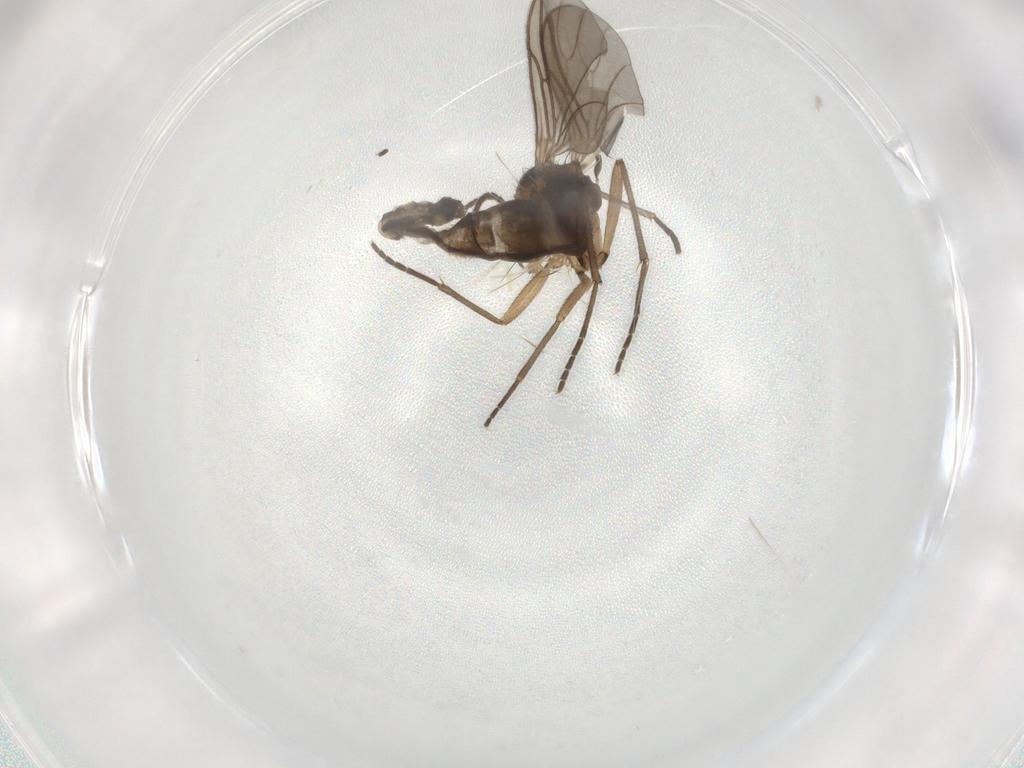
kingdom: Animalia
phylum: Arthropoda
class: Insecta
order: Diptera
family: Sciaridae
